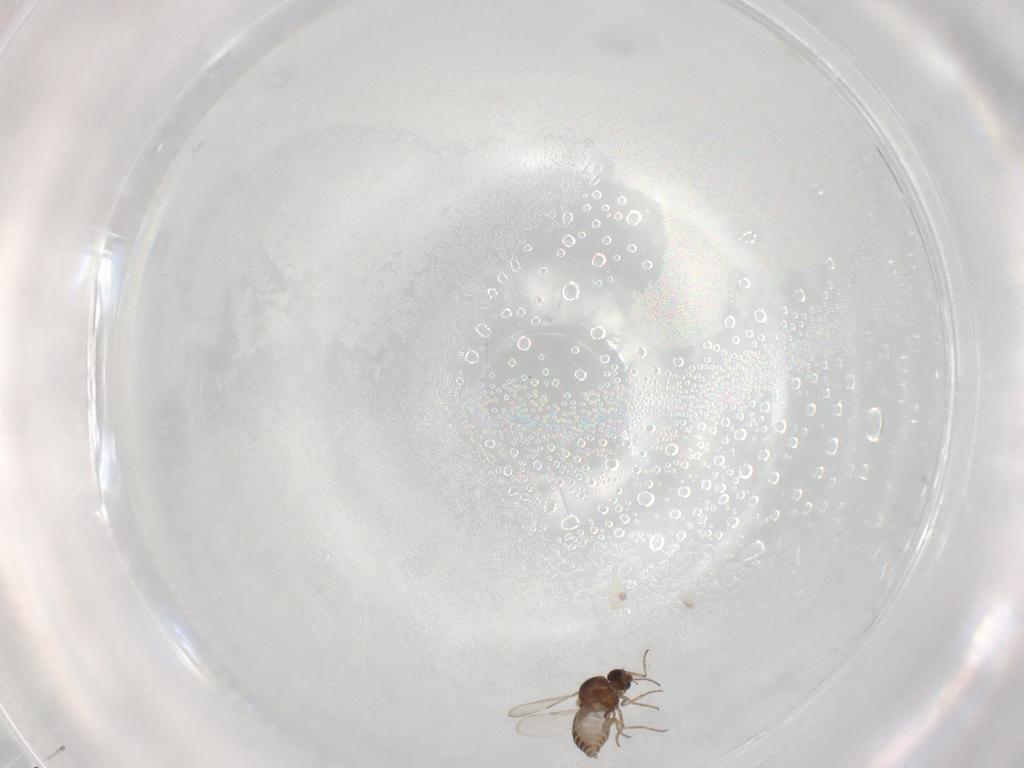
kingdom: Animalia
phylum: Arthropoda
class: Insecta
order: Diptera
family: Ceratopogonidae
